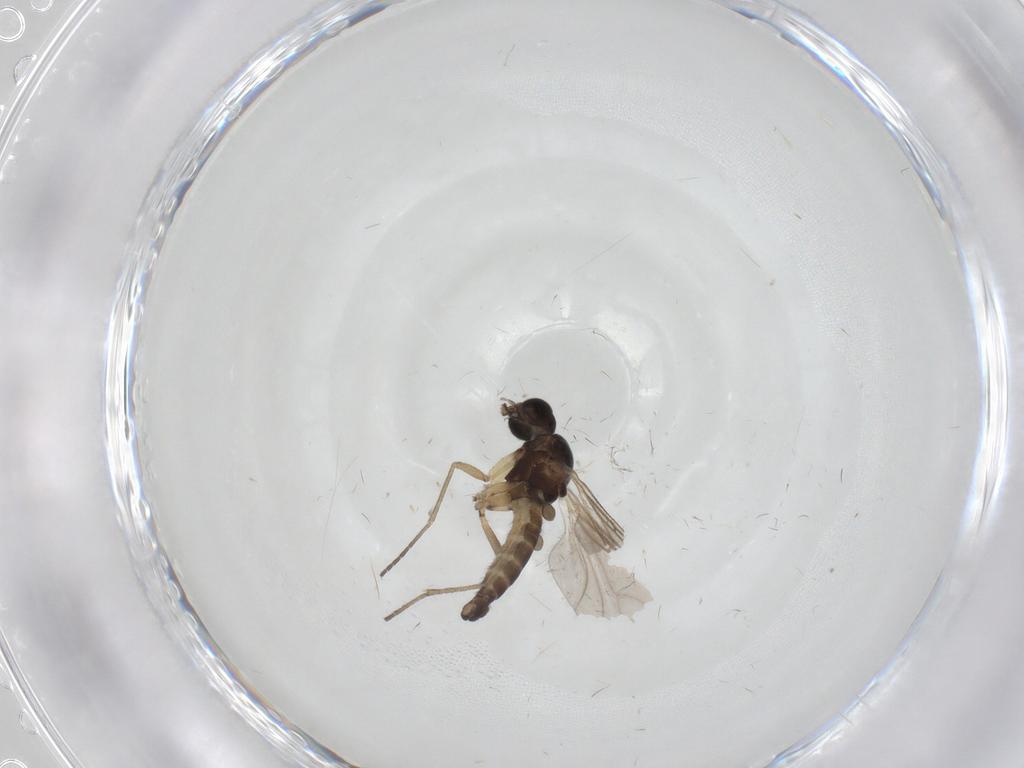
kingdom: Animalia
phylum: Arthropoda
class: Insecta
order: Diptera
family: Sciaridae
